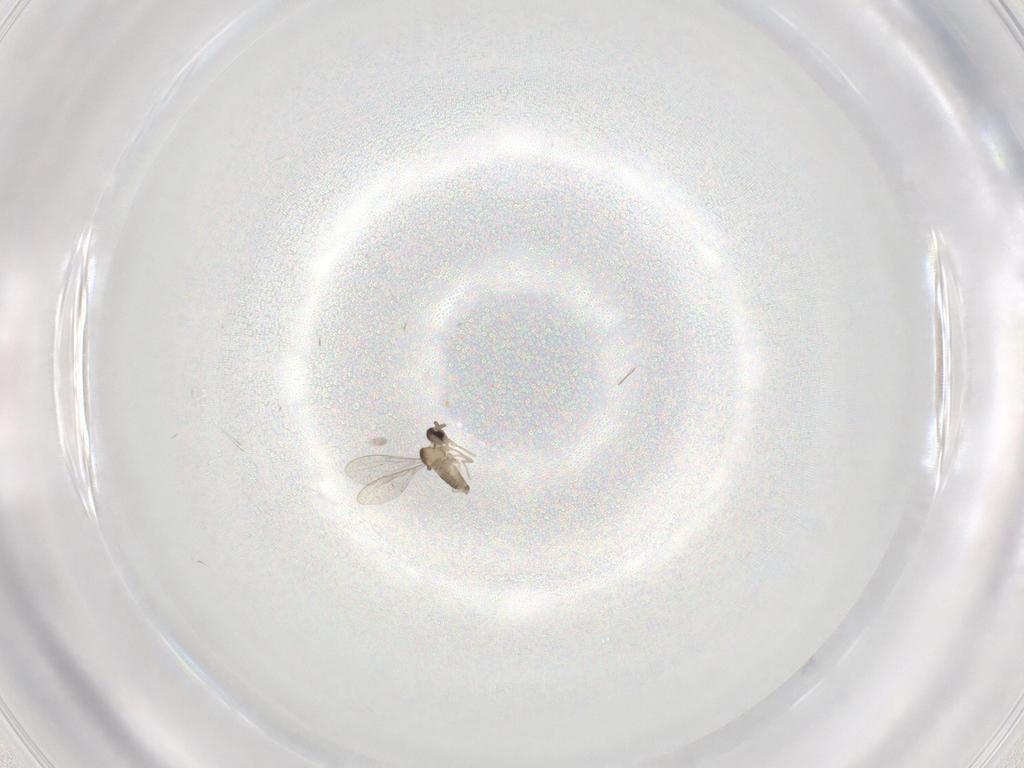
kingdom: Animalia
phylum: Arthropoda
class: Insecta
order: Diptera
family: Cecidomyiidae
